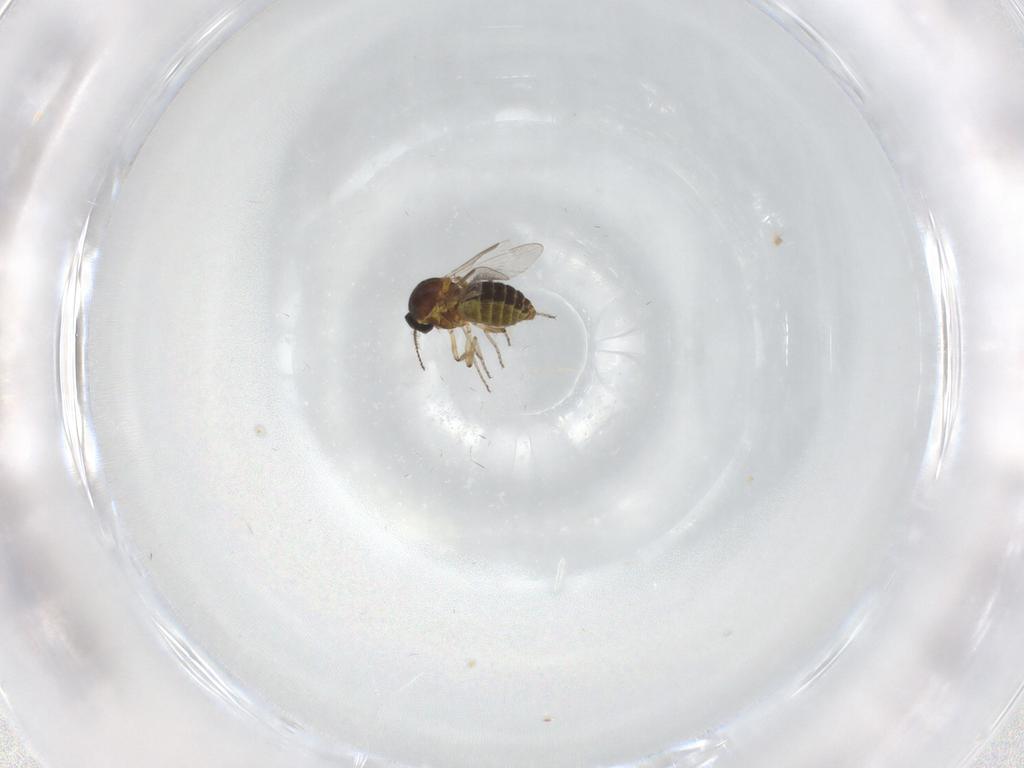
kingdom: Animalia
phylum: Arthropoda
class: Insecta
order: Diptera
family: Ceratopogonidae
